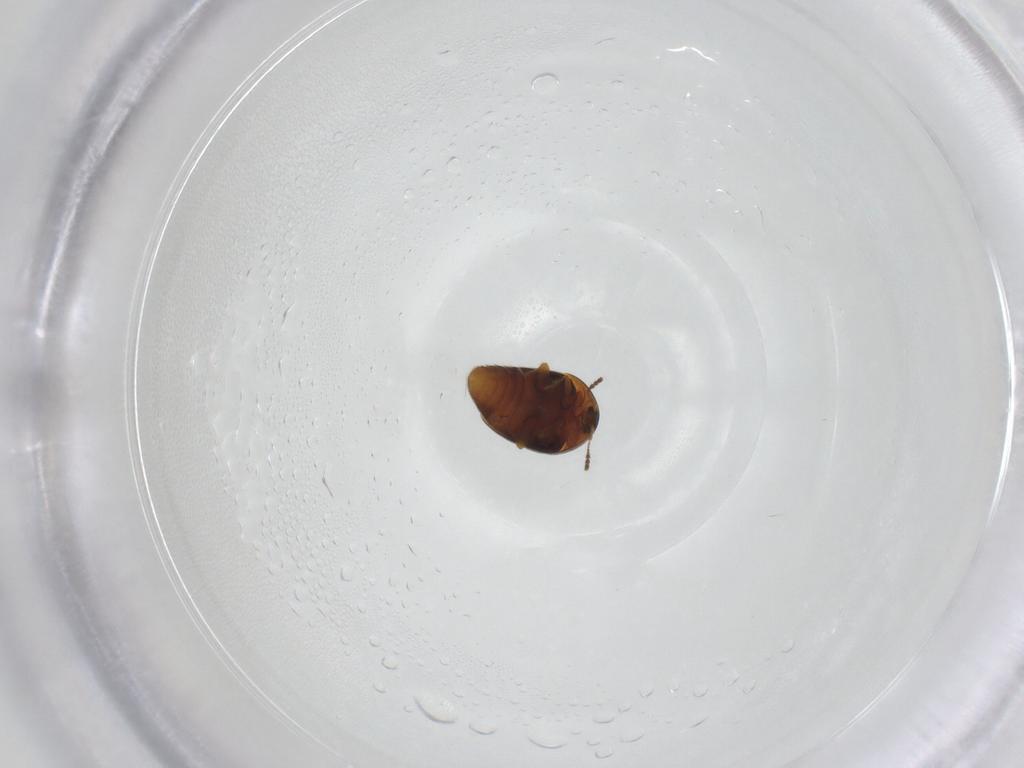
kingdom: Animalia
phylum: Arthropoda
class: Insecta
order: Coleoptera
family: Corylophidae
